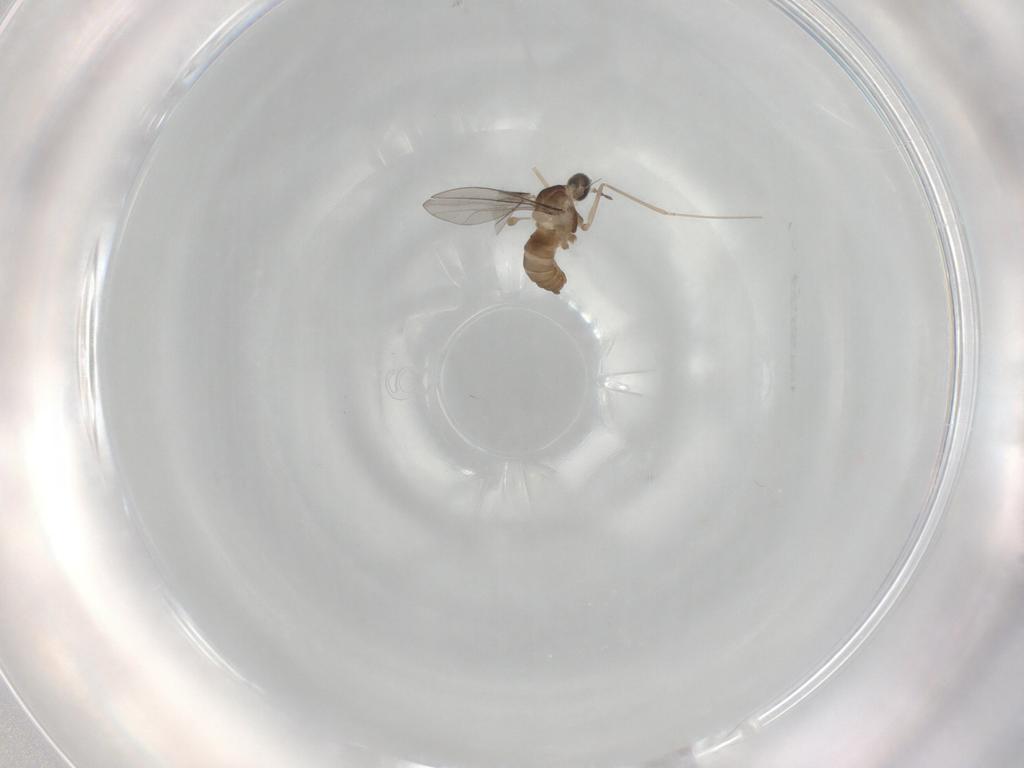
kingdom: Animalia
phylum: Arthropoda
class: Insecta
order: Diptera
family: Cecidomyiidae
